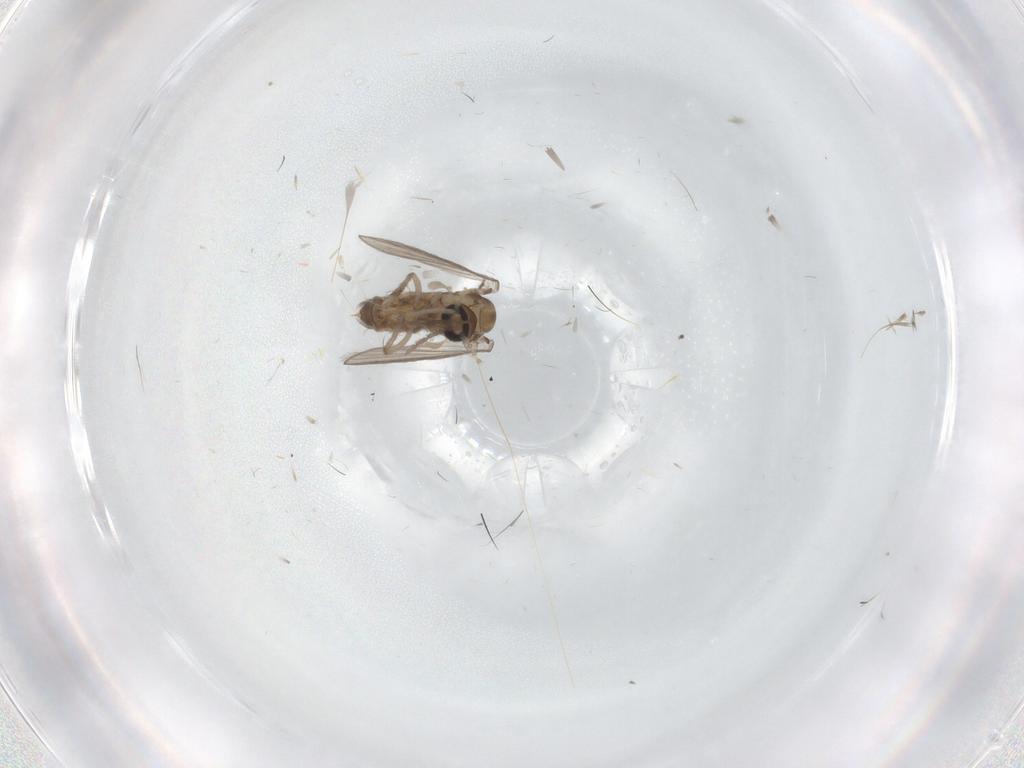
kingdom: Animalia
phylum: Arthropoda
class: Insecta
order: Diptera
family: Psychodidae
